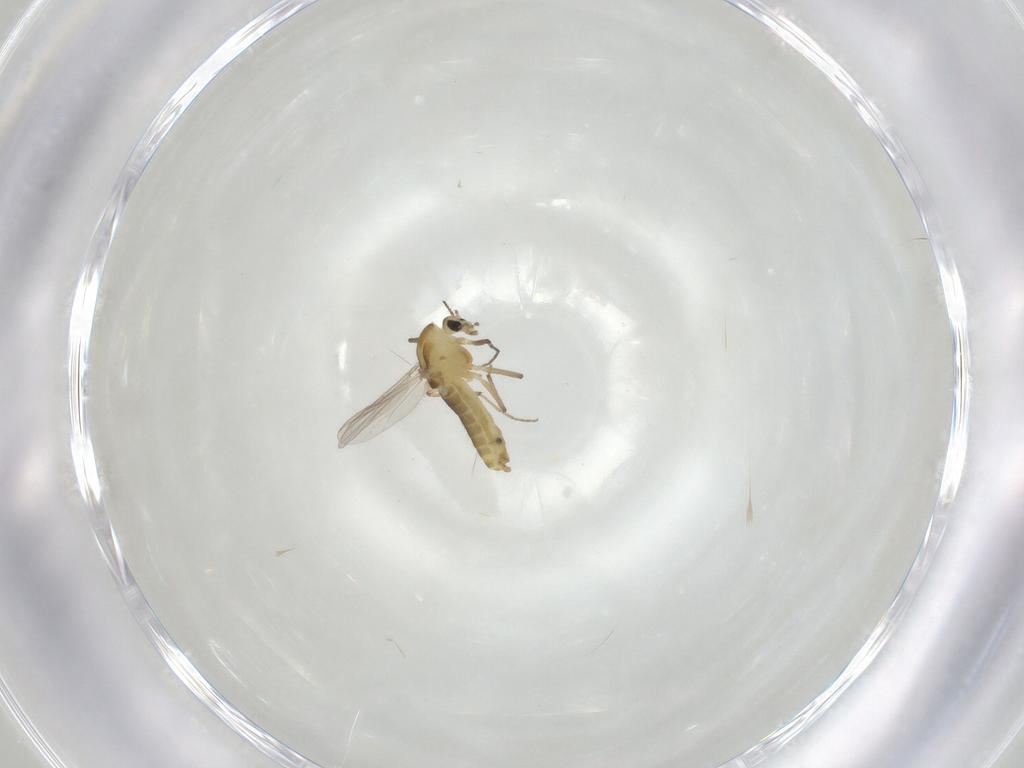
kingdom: Animalia
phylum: Arthropoda
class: Insecta
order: Diptera
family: Chironomidae
